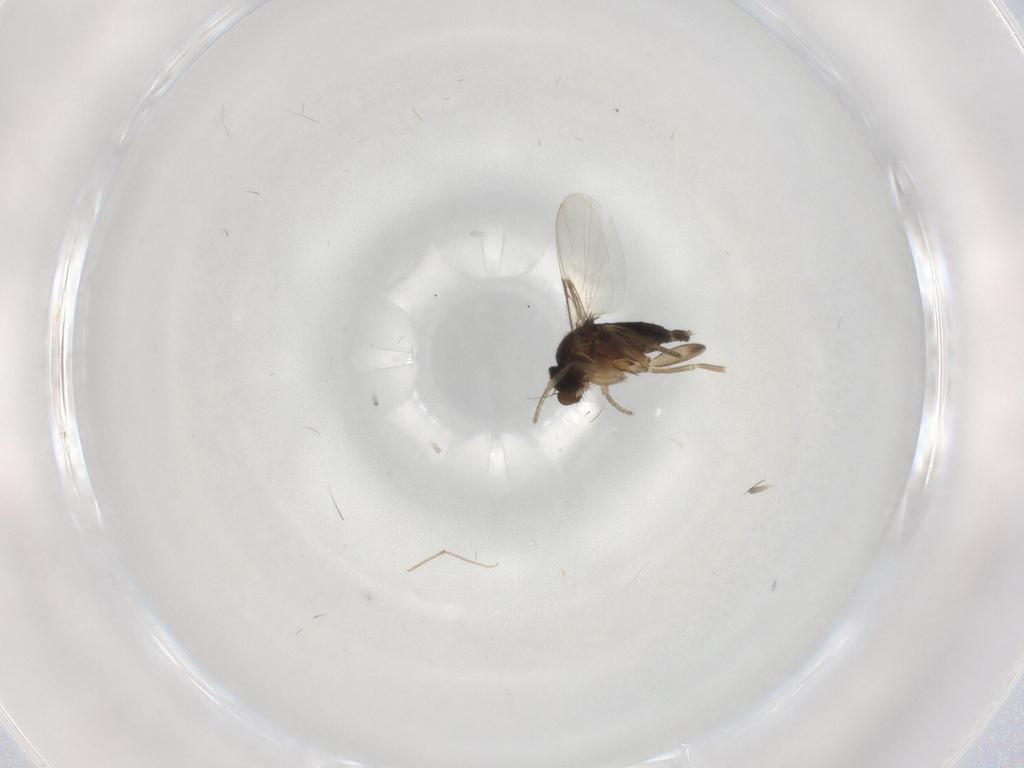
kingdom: Animalia
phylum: Arthropoda
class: Insecta
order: Diptera
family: Phoridae
